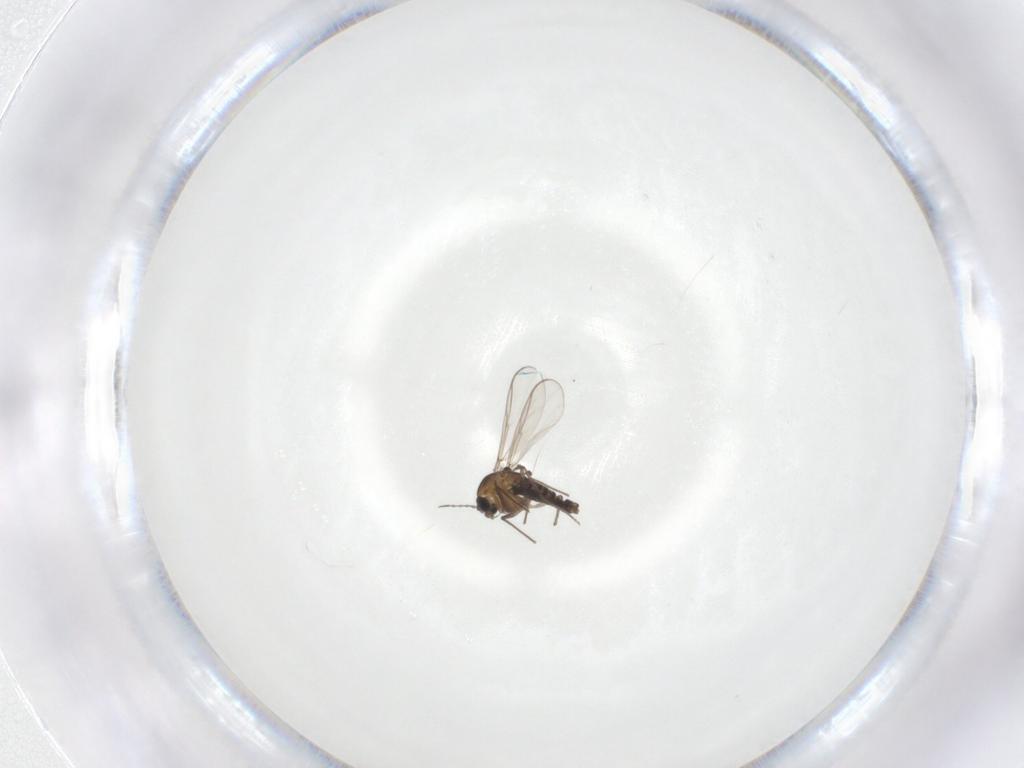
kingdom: Animalia
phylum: Arthropoda
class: Insecta
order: Diptera
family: Chironomidae
